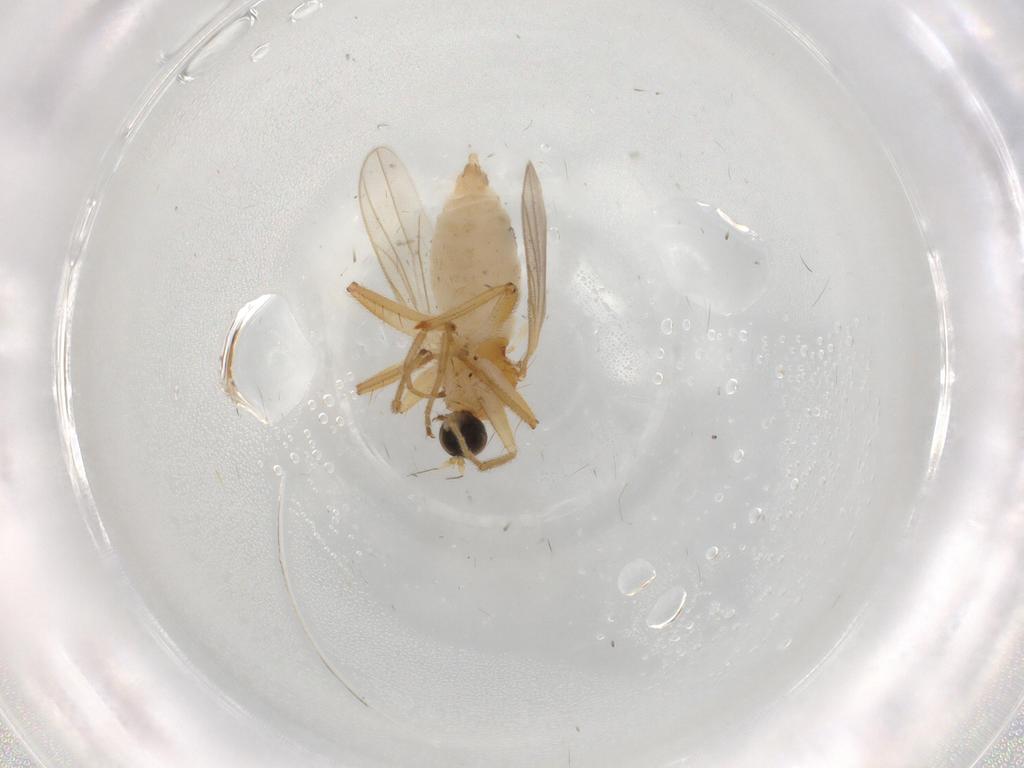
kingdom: Animalia
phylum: Arthropoda
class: Insecta
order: Diptera
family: Hybotidae
